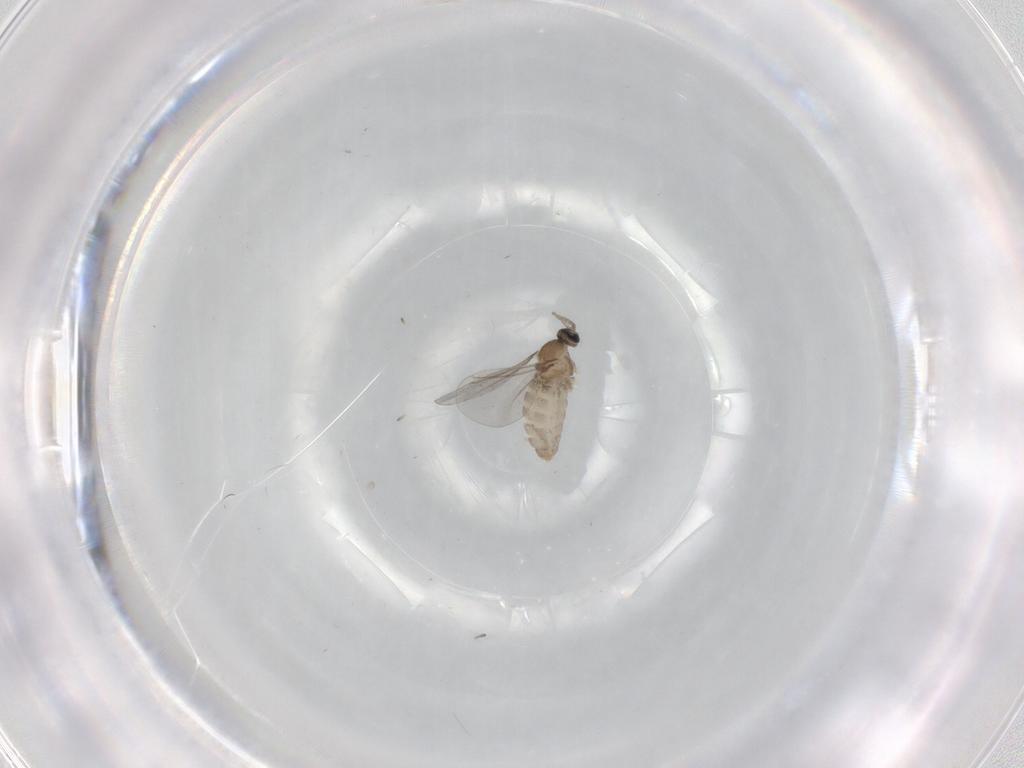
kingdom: Animalia
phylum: Arthropoda
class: Insecta
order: Diptera
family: Cecidomyiidae
